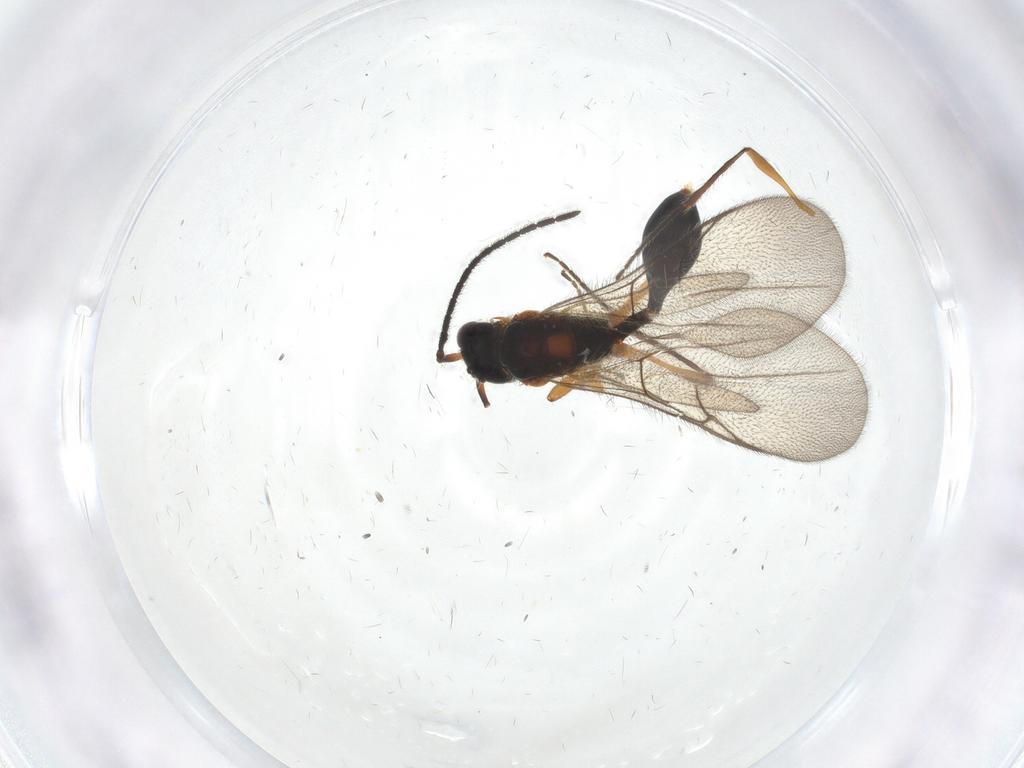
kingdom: Animalia
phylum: Arthropoda
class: Insecta
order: Hymenoptera
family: Diapriidae
